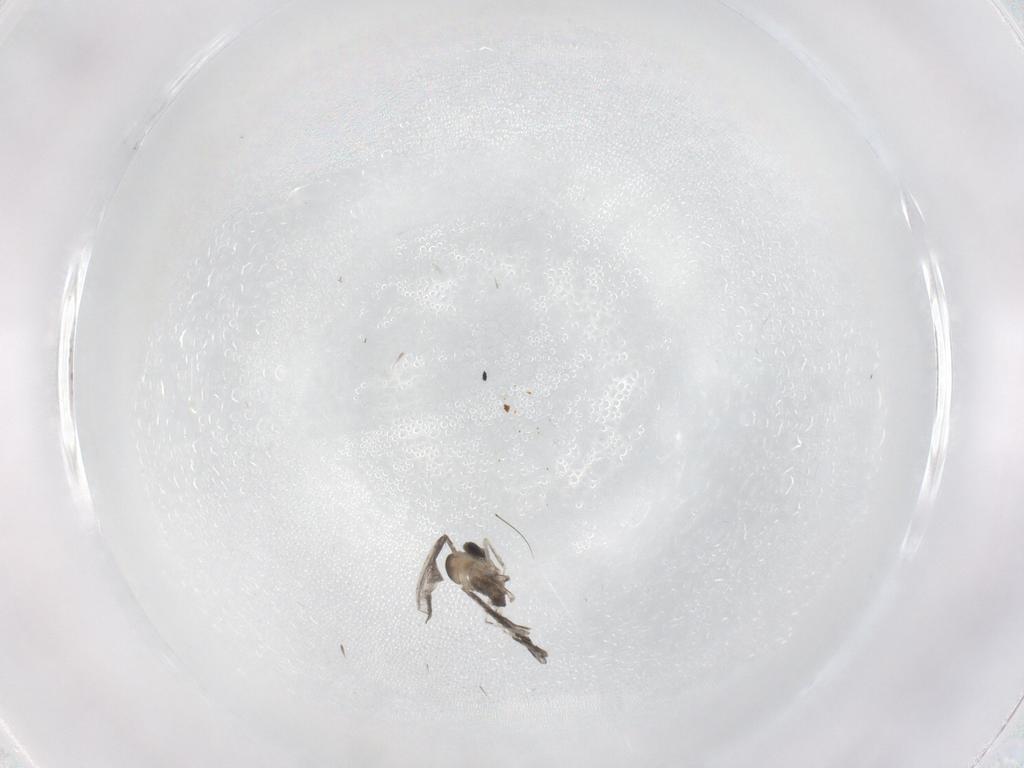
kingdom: Animalia
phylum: Arthropoda
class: Insecta
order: Diptera
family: Cecidomyiidae
